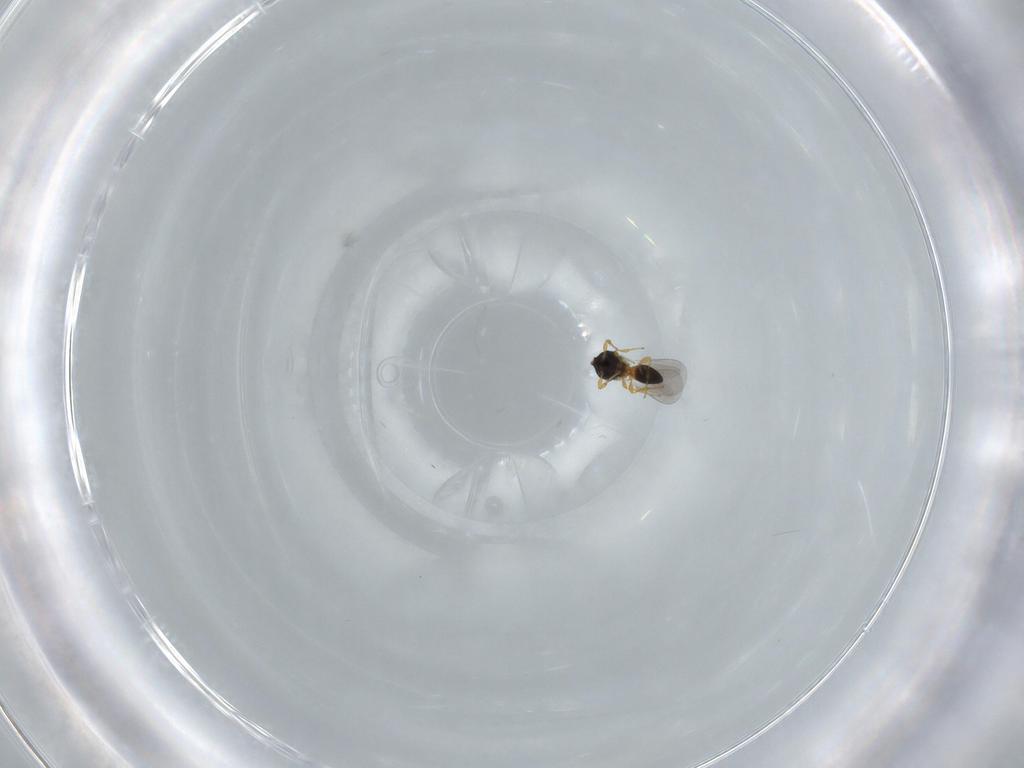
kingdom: Animalia
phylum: Arthropoda
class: Insecta
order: Hymenoptera
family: Platygastridae
